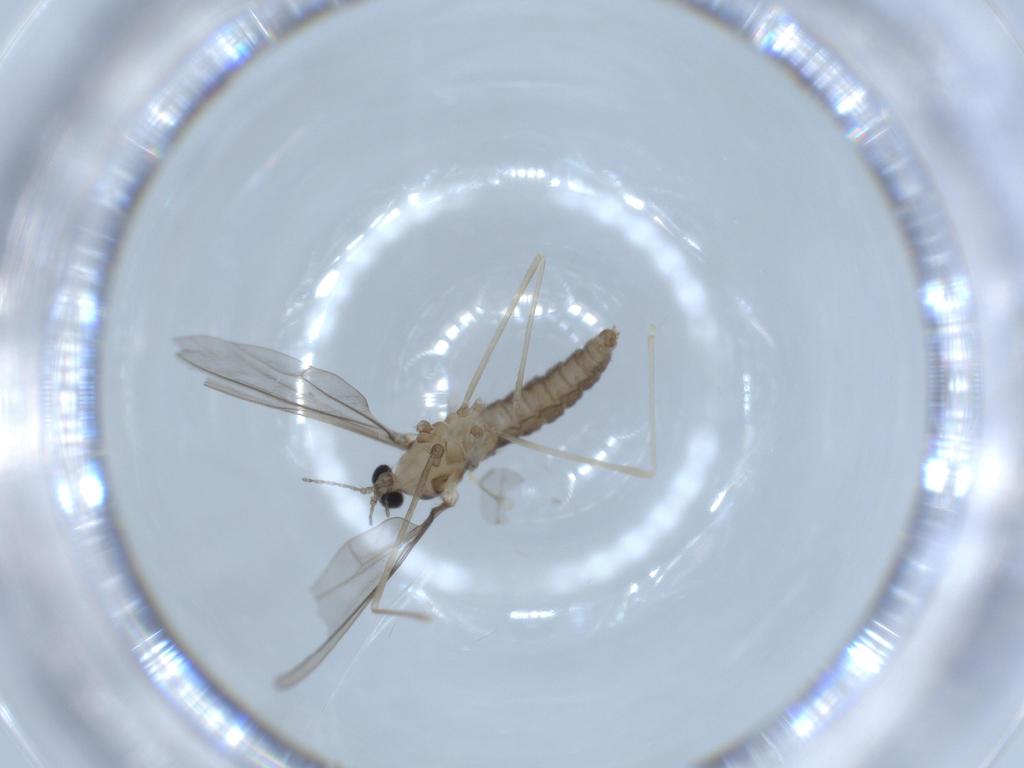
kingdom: Animalia
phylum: Arthropoda
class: Insecta
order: Diptera
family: Cecidomyiidae
